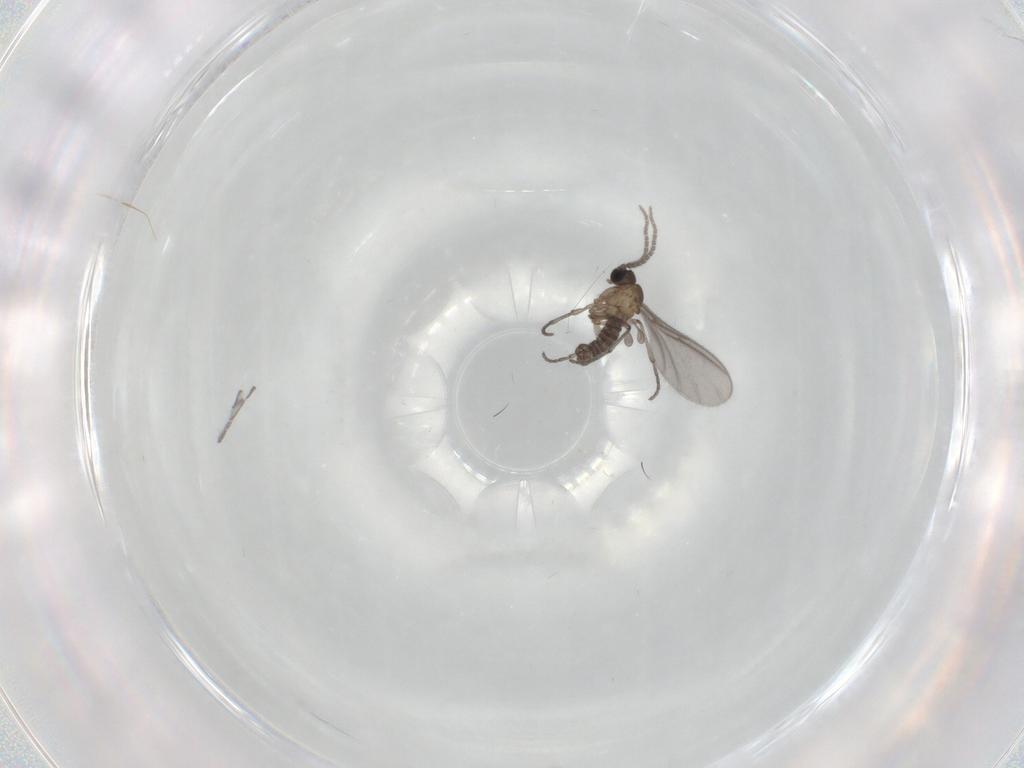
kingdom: Animalia
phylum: Arthropoda
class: Insecta
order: Diptera
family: Sciaridae
